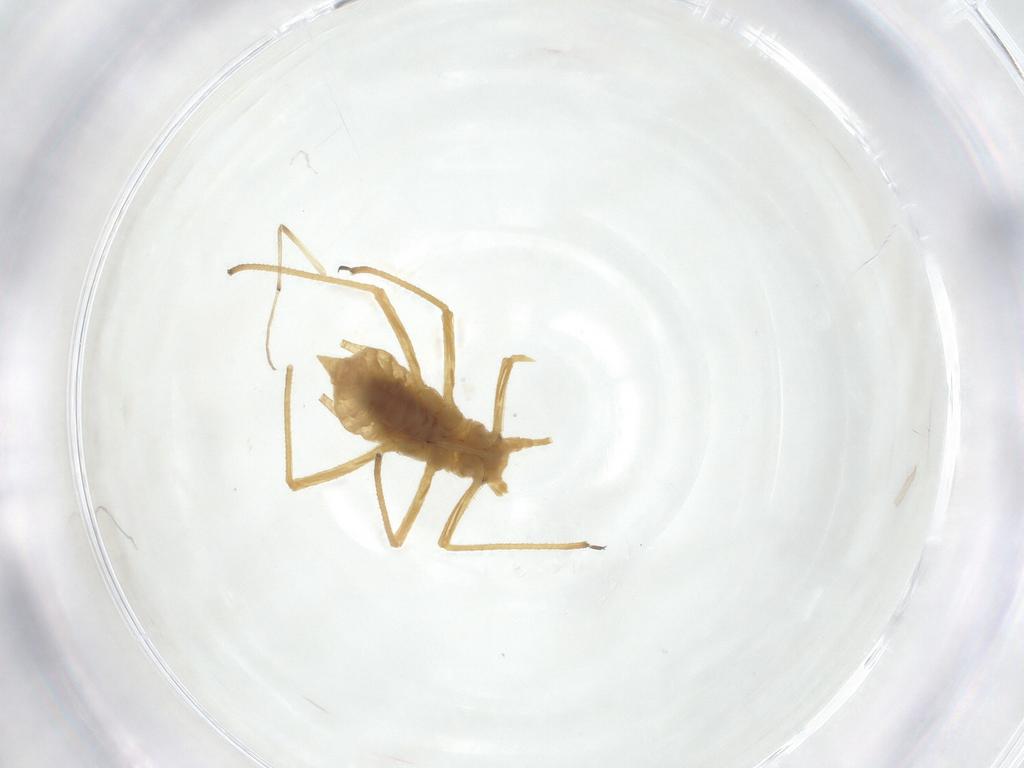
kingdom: Animalia
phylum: Arthropoda
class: Insecta
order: Hemiptera
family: Aphididae
